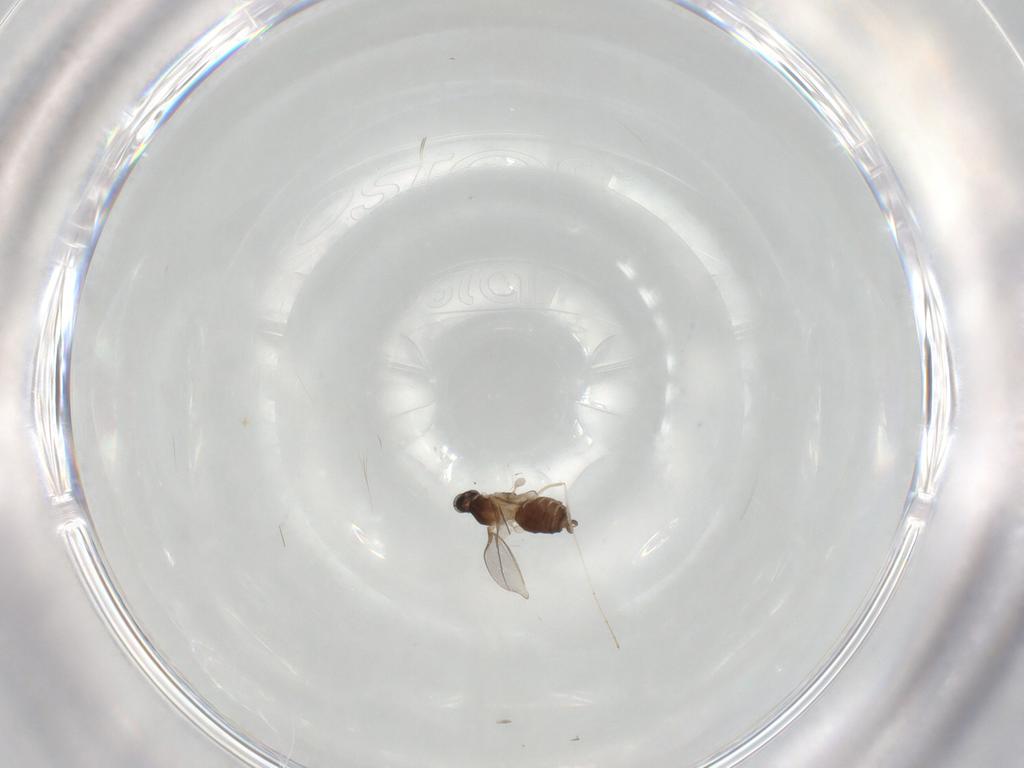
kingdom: Animalia
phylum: Arthropoda
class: Insecta
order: Diptera
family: Cecidomyiidae
